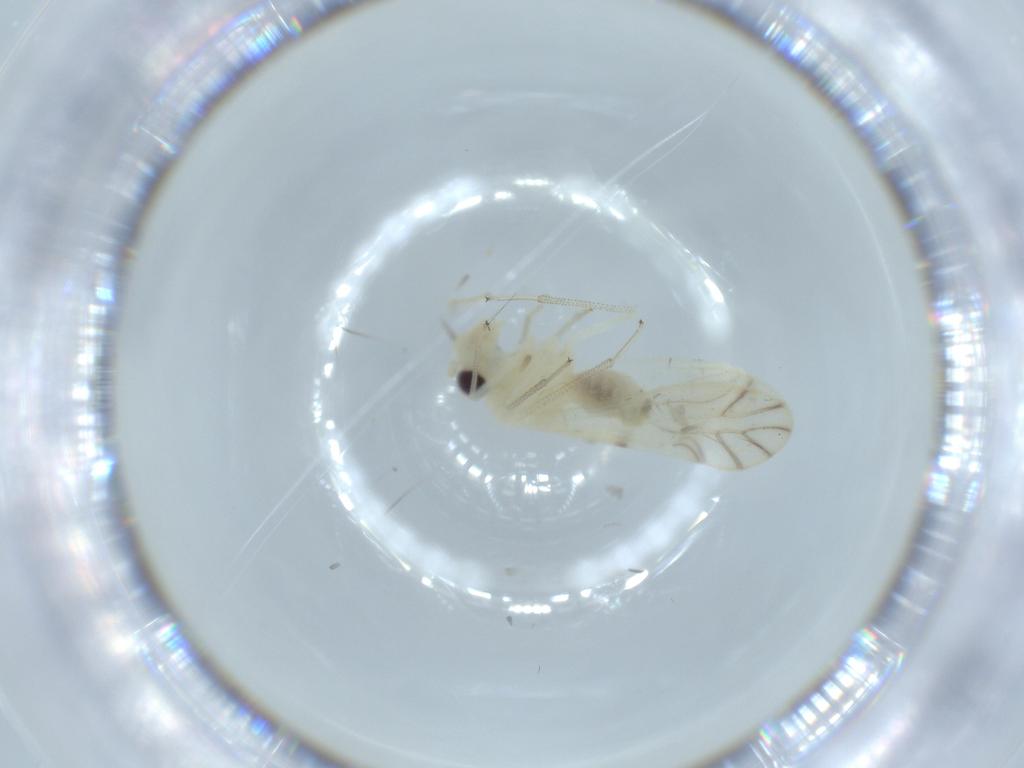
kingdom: Animalia
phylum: Arthropoda
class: Insecta
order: Psocodea
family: Caeciliusidae
